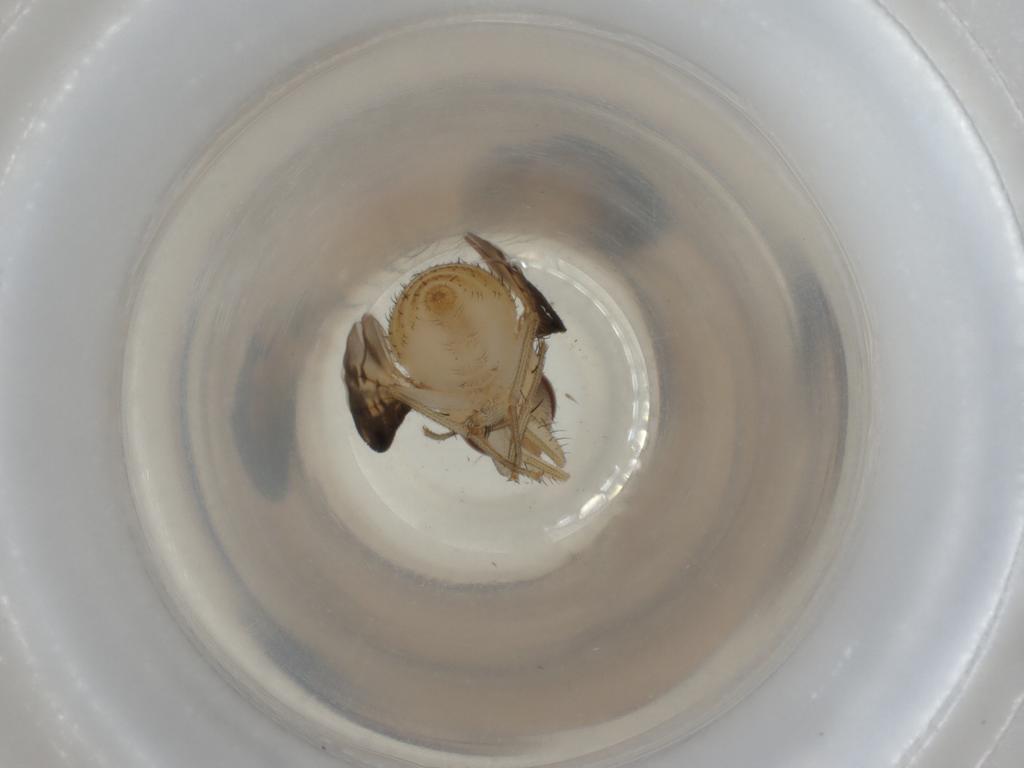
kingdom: Animalia
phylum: Arthropoda
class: Insecta
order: Diptera
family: Lauxaniidae
